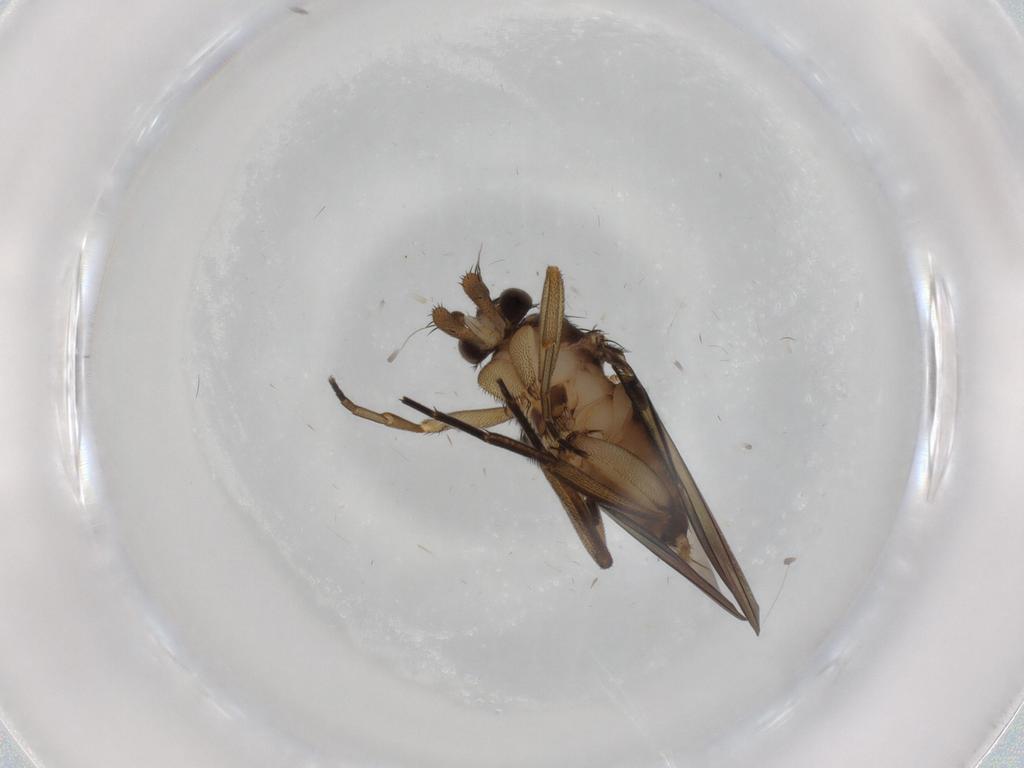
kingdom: Animalia
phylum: Arthropoda
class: Insecta
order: Diptera
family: Phoridae
